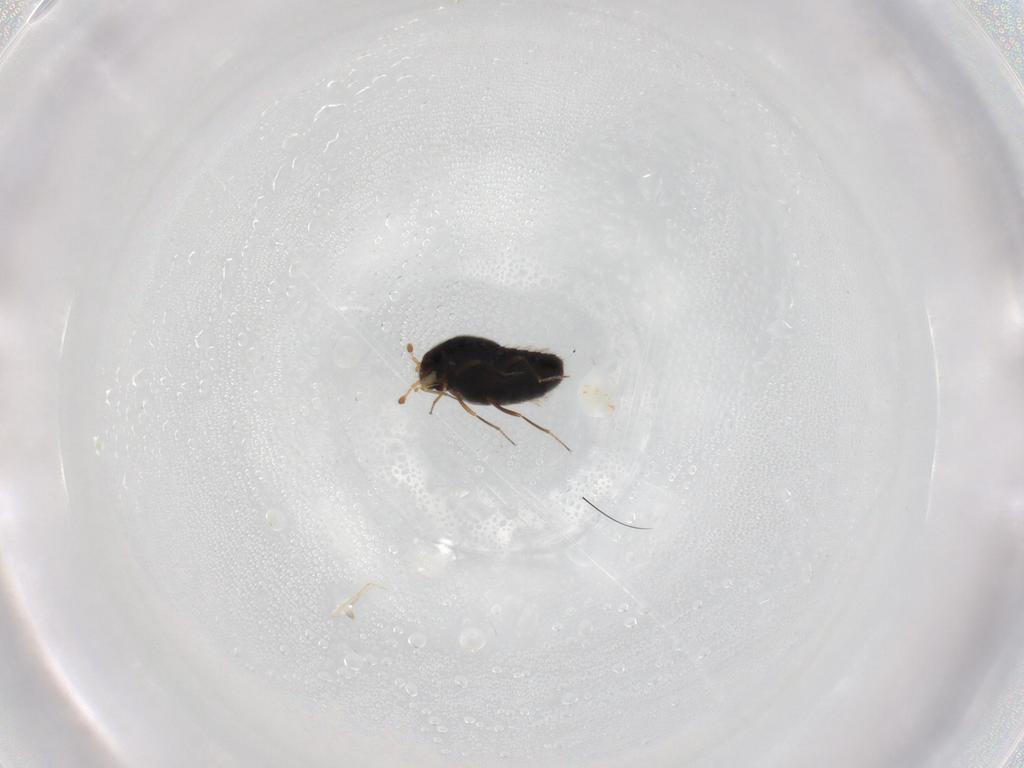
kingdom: Animalia
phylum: Arthropoda
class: Insecta
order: Coleoptera
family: Staphylinidae
